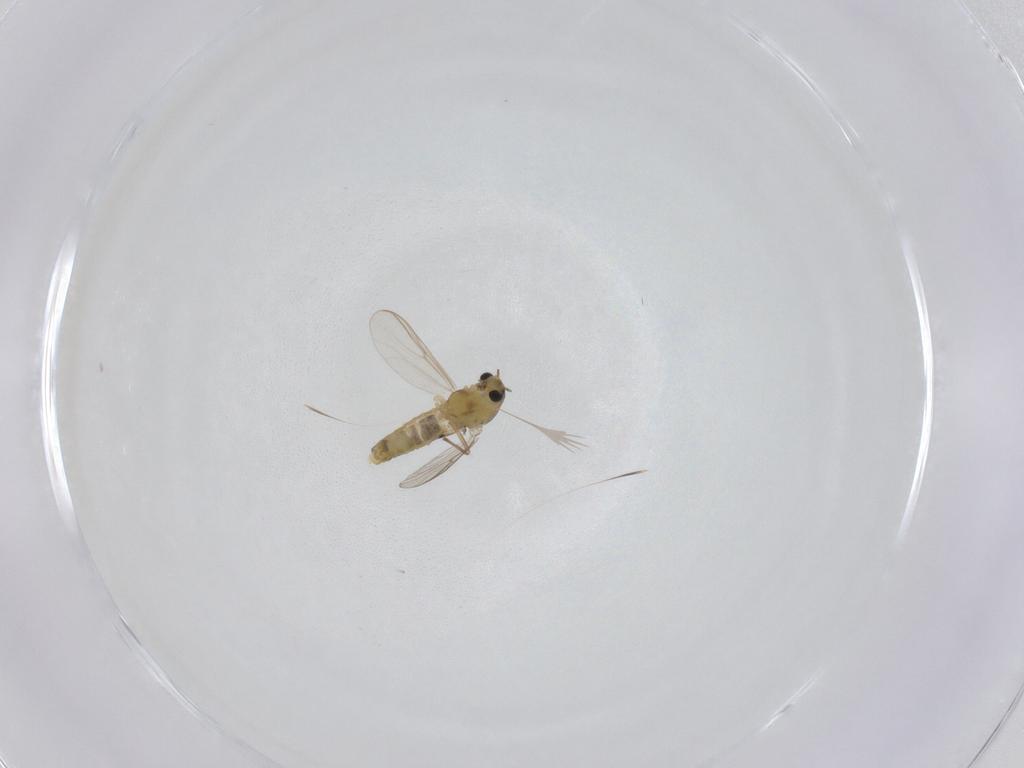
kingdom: Animalia
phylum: Arthropoda
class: Insecta
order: Diptera
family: Chironomidae
